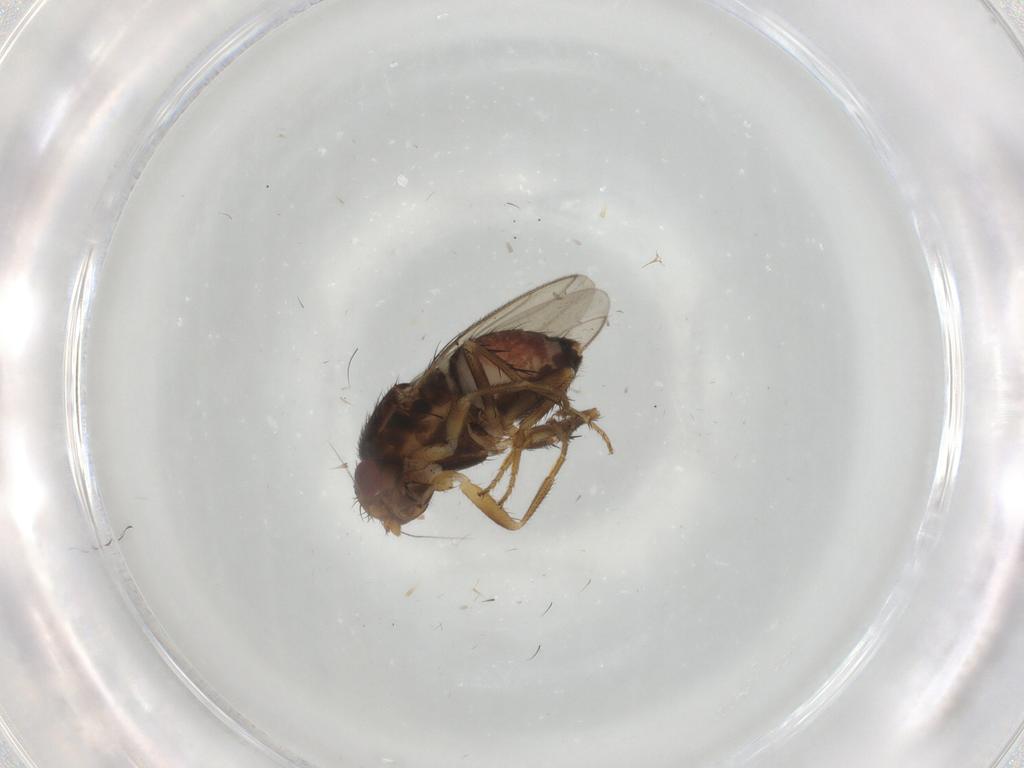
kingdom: Animalia
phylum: Arthropoda
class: Insecta
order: Diptera
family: Sphaeroceridae
